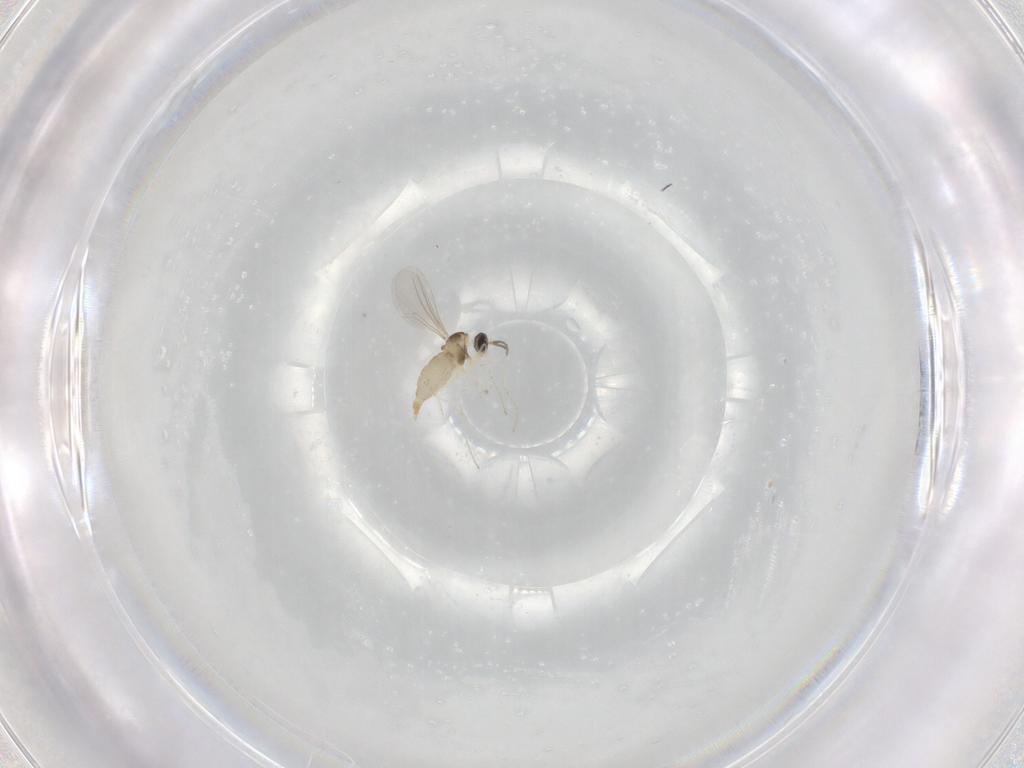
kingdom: Animalia
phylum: Arthropoda
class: Insecta
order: Diptera
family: Cecidomyiidae
